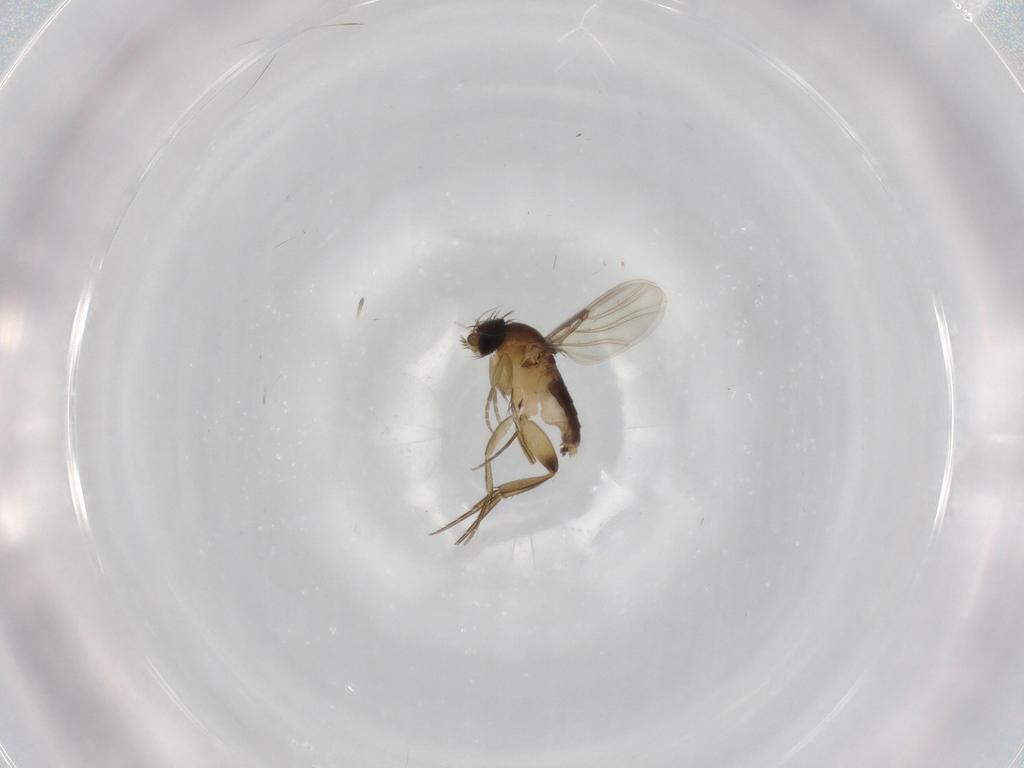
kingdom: Animalia
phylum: Arthropoda
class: Insecta
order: Diptera
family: Phoridae
